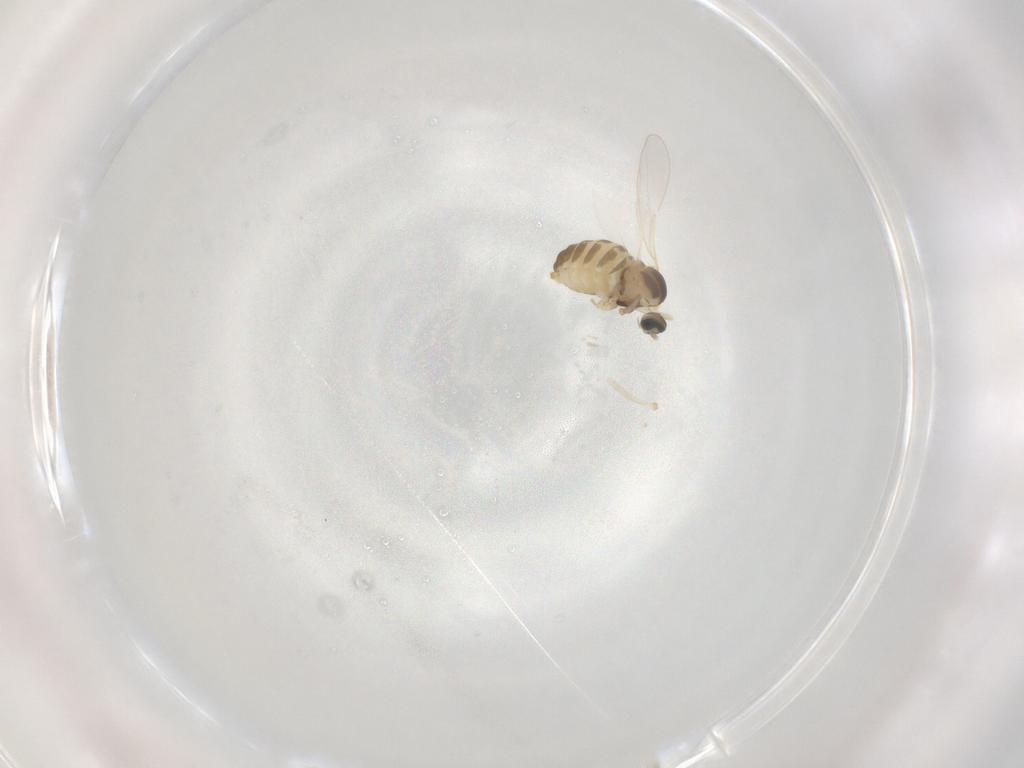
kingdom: Animalia
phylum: Arthropoda
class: Insecta
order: Diptera
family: Cecidomyiidae
